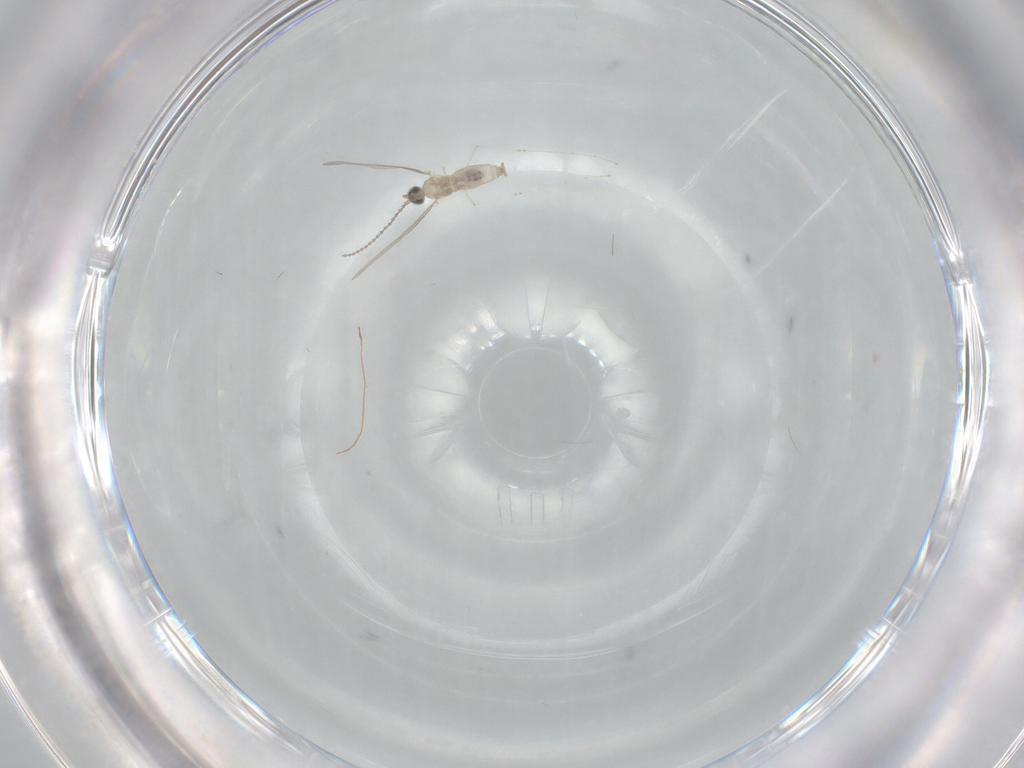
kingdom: Animalia
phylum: Arthropoda
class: Insecta
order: Diptera
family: Cecidomyiidae
